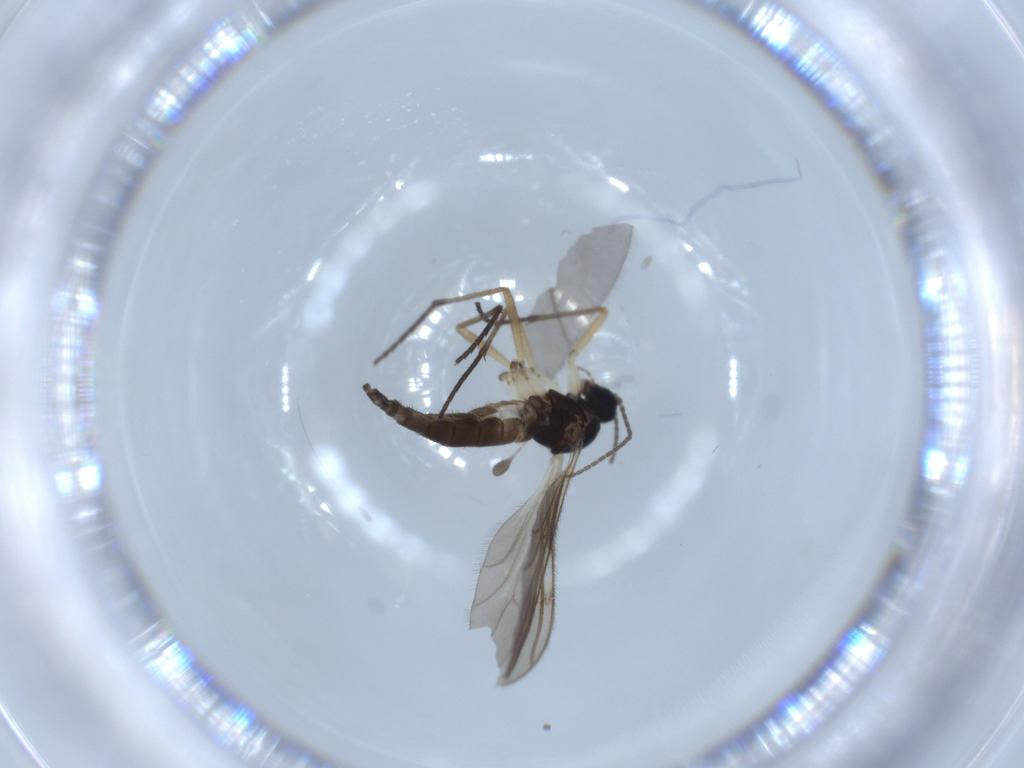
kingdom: Animalia
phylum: Arthropoda
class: Insecta
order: Diptera
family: Sciaridae
